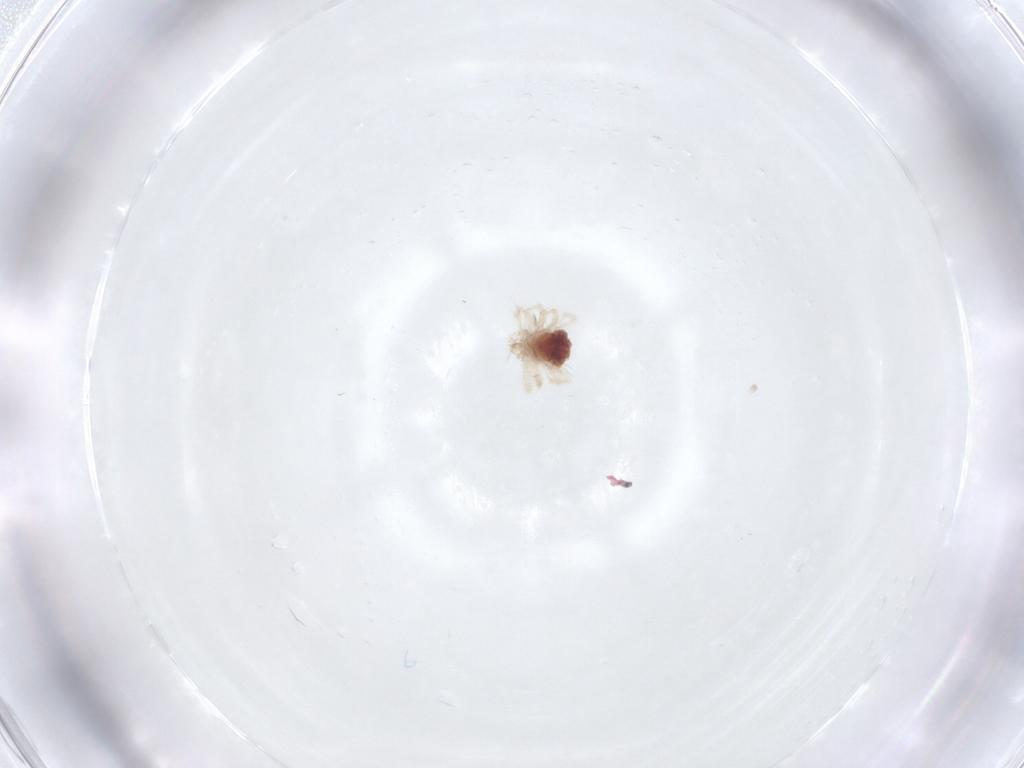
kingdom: Animalia
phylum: Arthropoda
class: Arachnida
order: Trombidiformes
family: Anystidae
